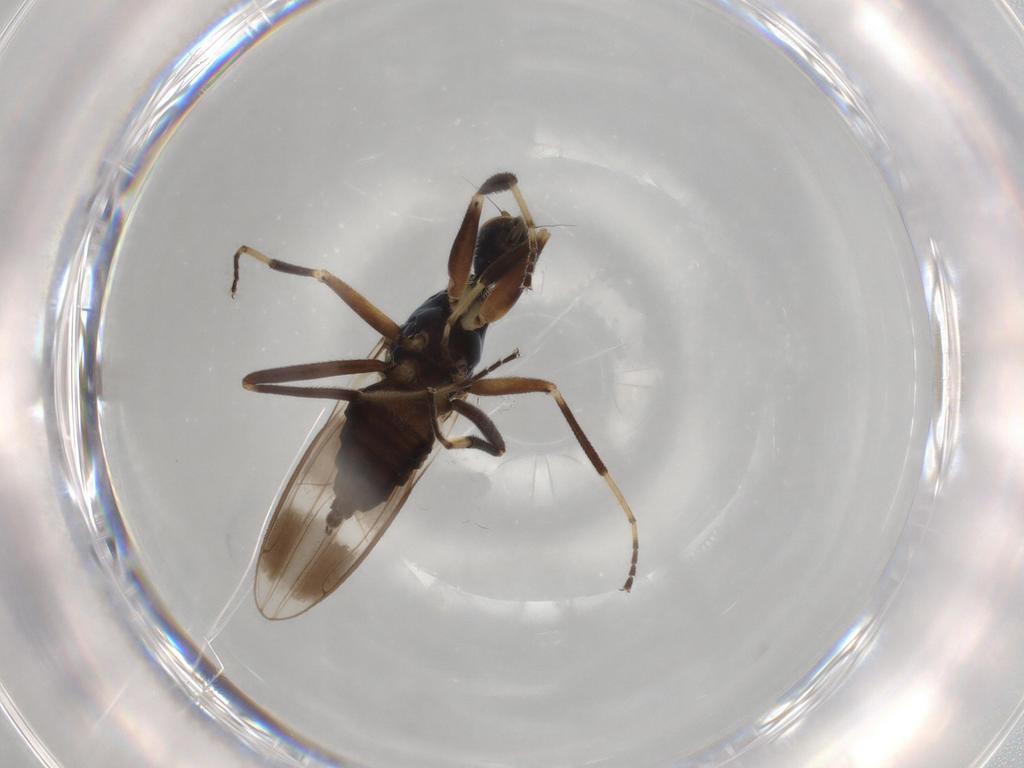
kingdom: Animalia
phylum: Arthropoda
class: Insecta
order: Diptera
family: Hybotidae
